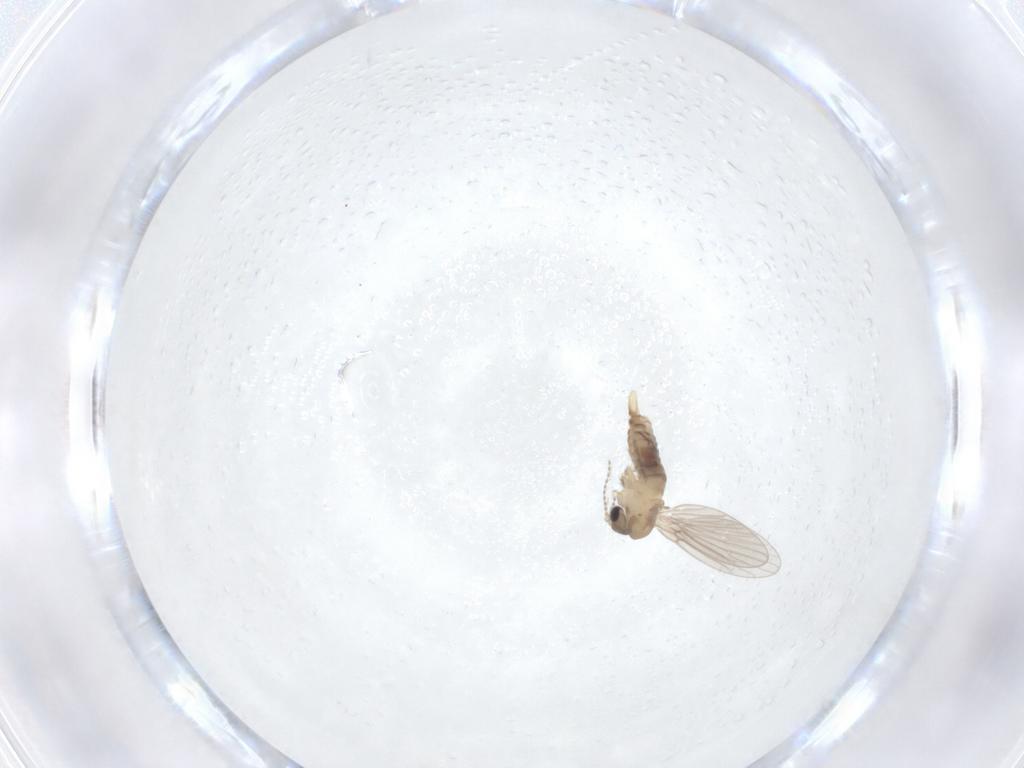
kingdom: Animalia
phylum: Arthropoda
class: Insecta
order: Diptera
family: Psychodidae
